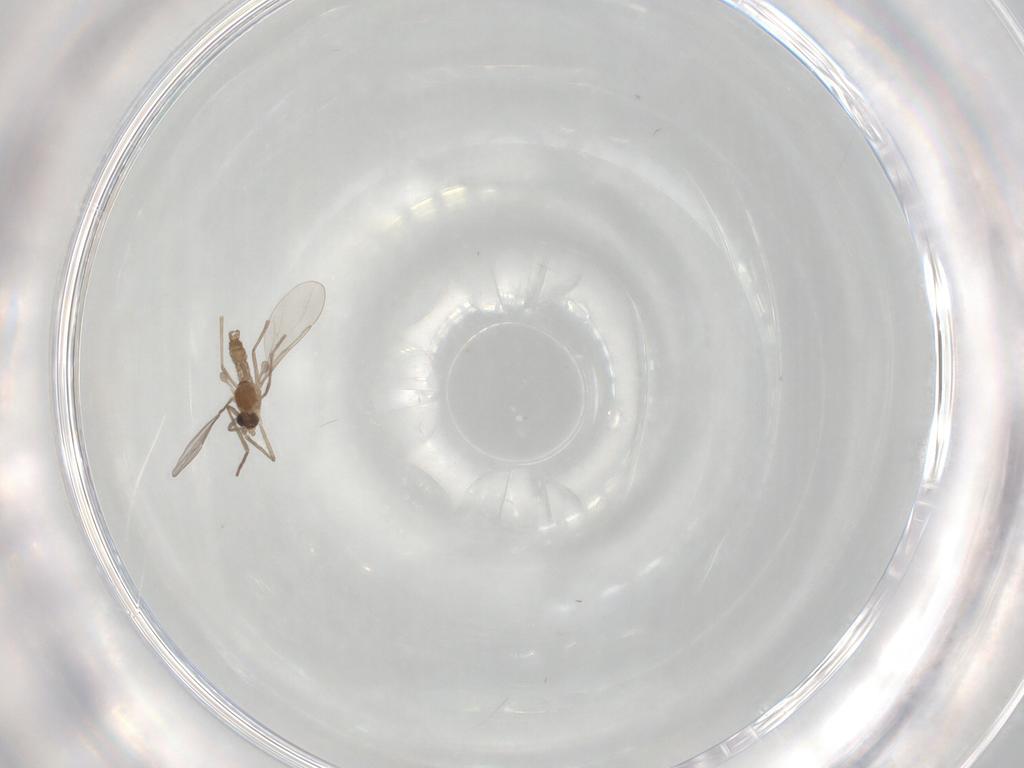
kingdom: Animalia
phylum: Arthropoda
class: Insecta
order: Diptera
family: Cecidomyiidae
